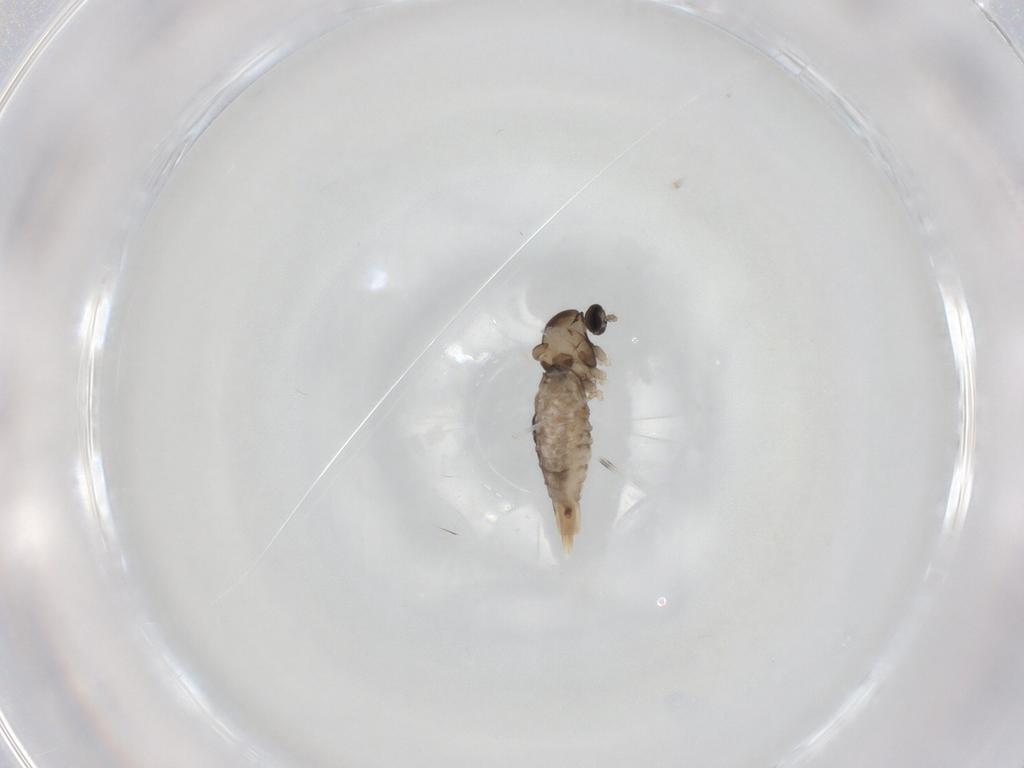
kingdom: Animalia
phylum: Arthropoda
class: Insecta
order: Diptera
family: Cecidomyiidae
